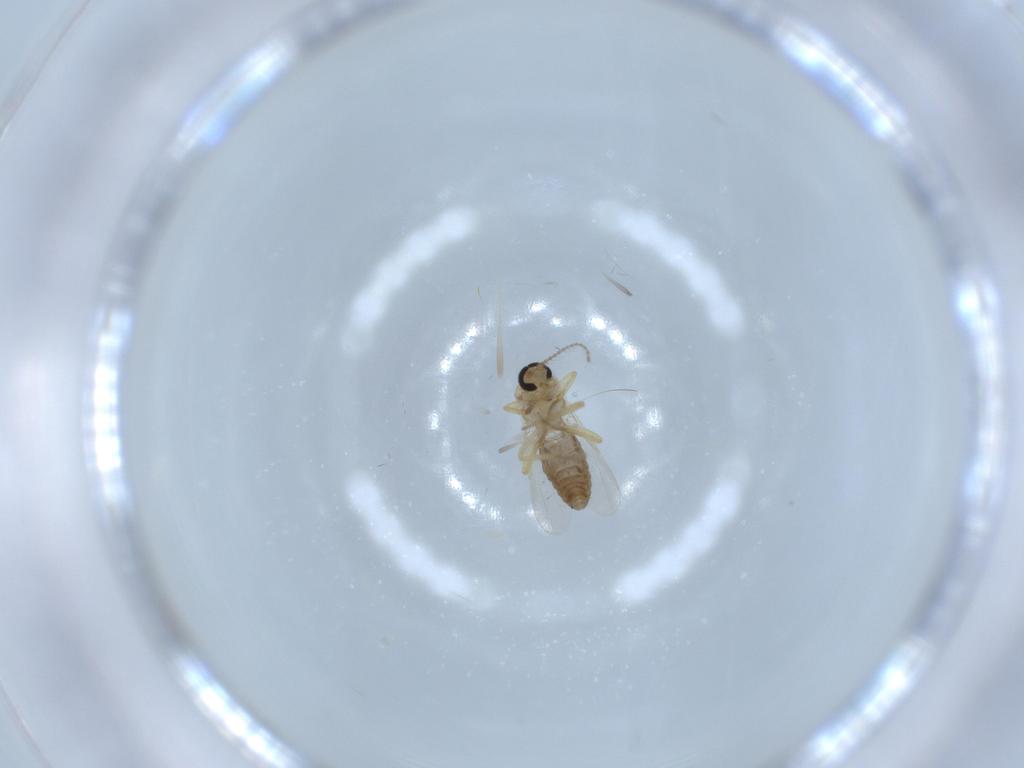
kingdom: Animalia
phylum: Arthropoda
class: Insecta
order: Diptera
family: Ceratopogonidae
